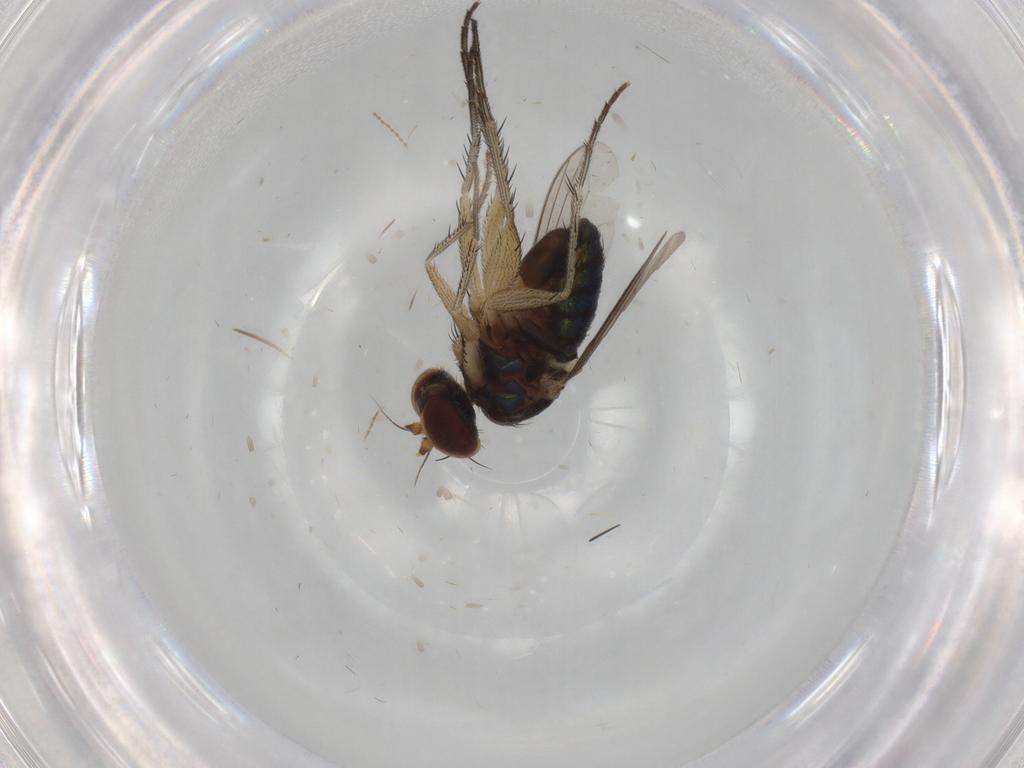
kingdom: Animalia
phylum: Arthropoda
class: Insecta
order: Diptera
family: Dolichopodidae
